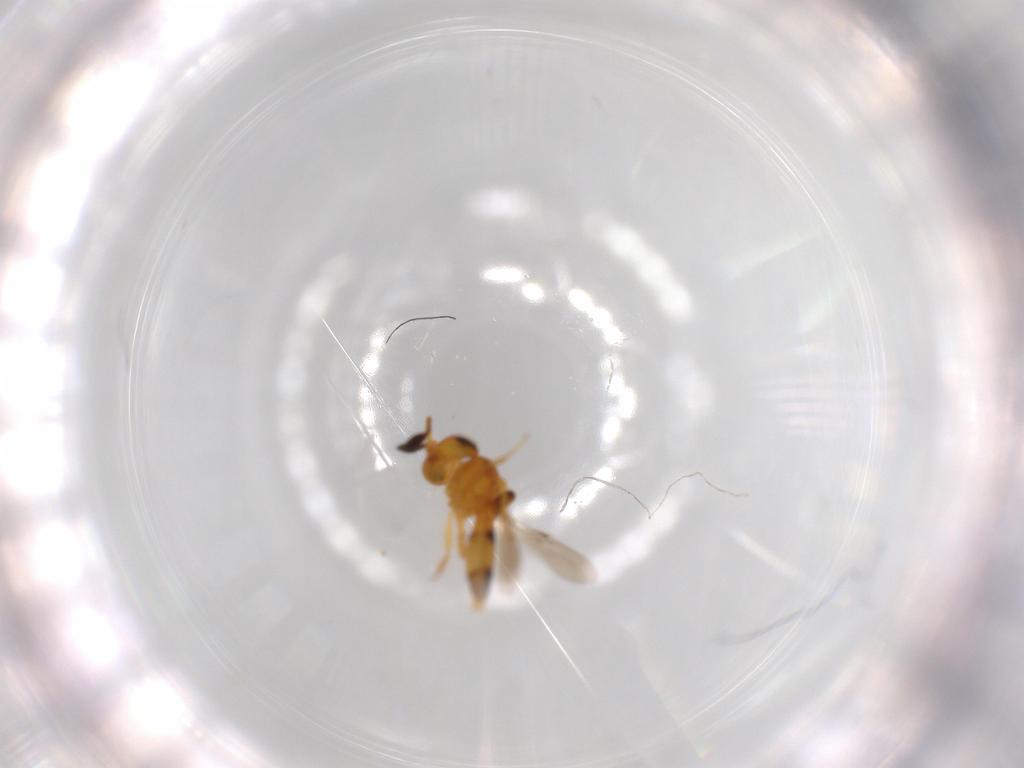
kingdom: Animalia
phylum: Arthropoda
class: Insecta
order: Hymenoptera
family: Scelionidae
